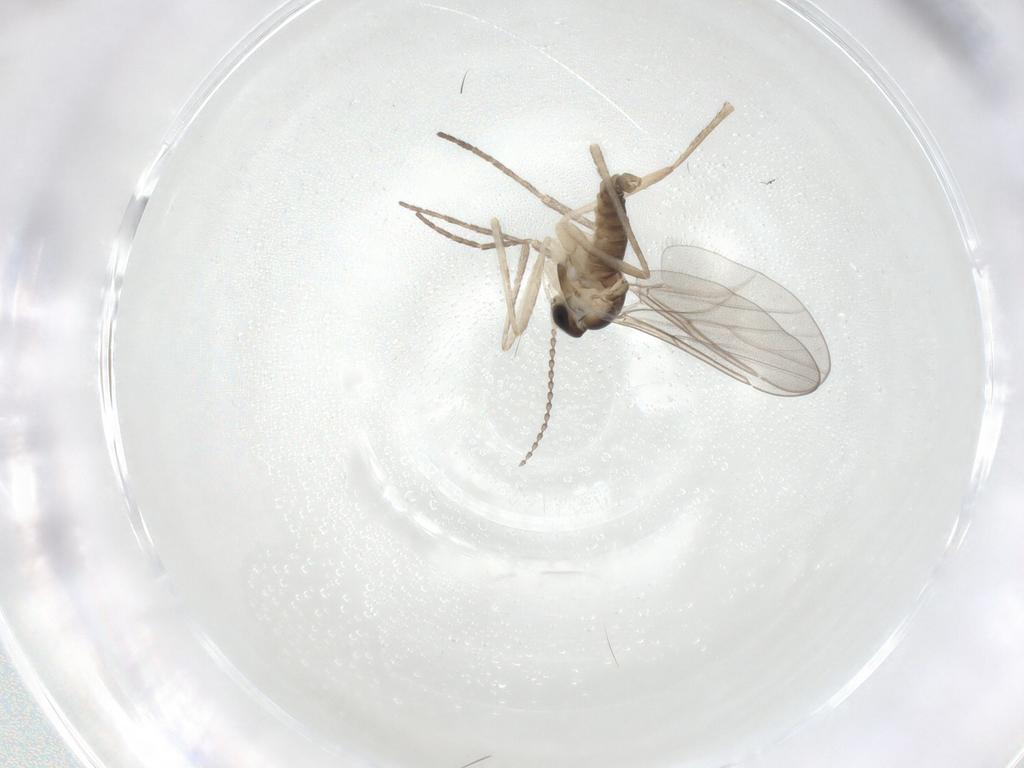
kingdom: Animalia
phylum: Arthropoda
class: Insecta
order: Diptera
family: Cecidomyiidae
